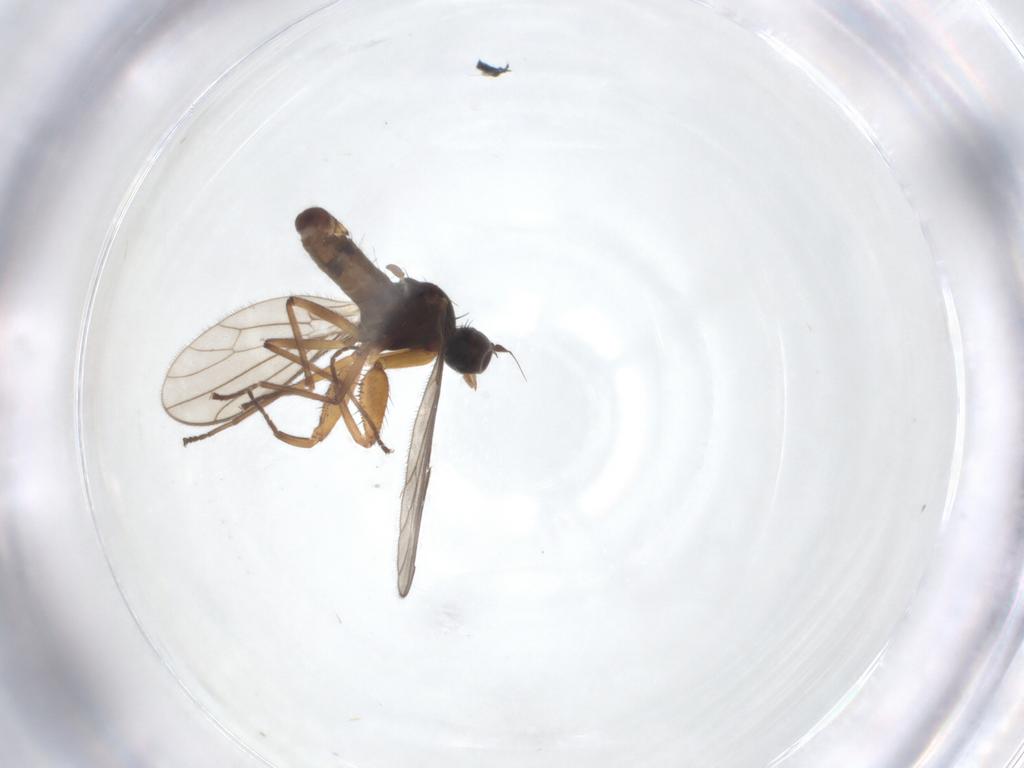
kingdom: Animalia
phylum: Arthropoda
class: Insecta
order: Diptera
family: Empididae
